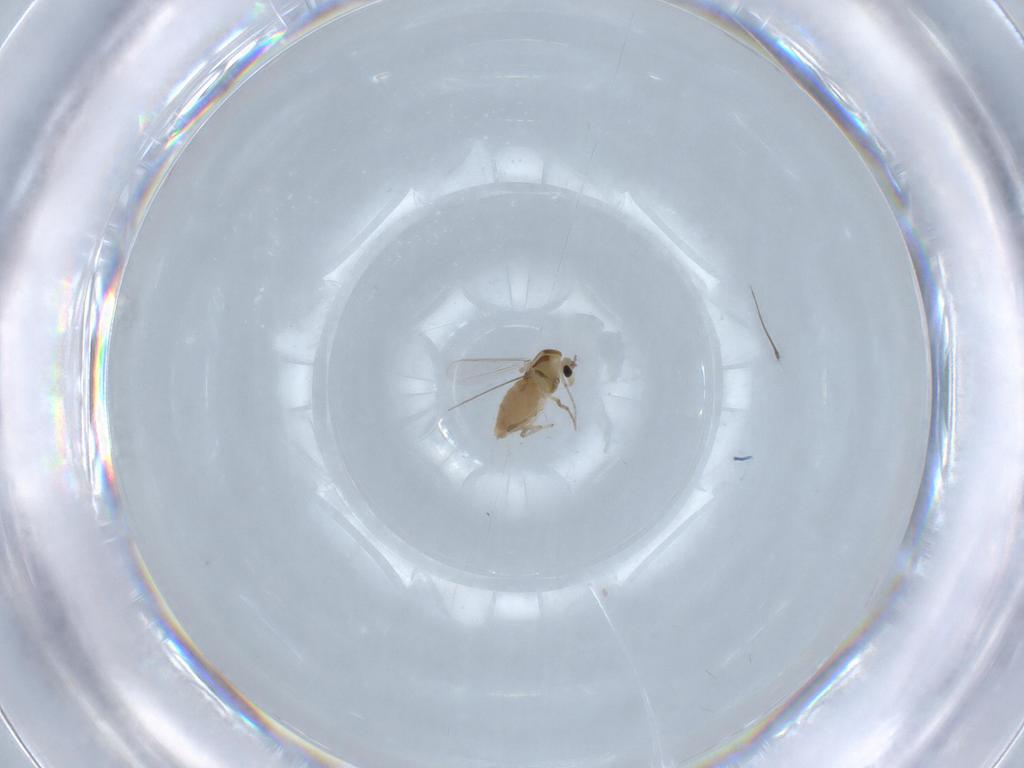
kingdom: Animalia
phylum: Arthropoda
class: Insecta
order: Diptera
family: Chironomidae
